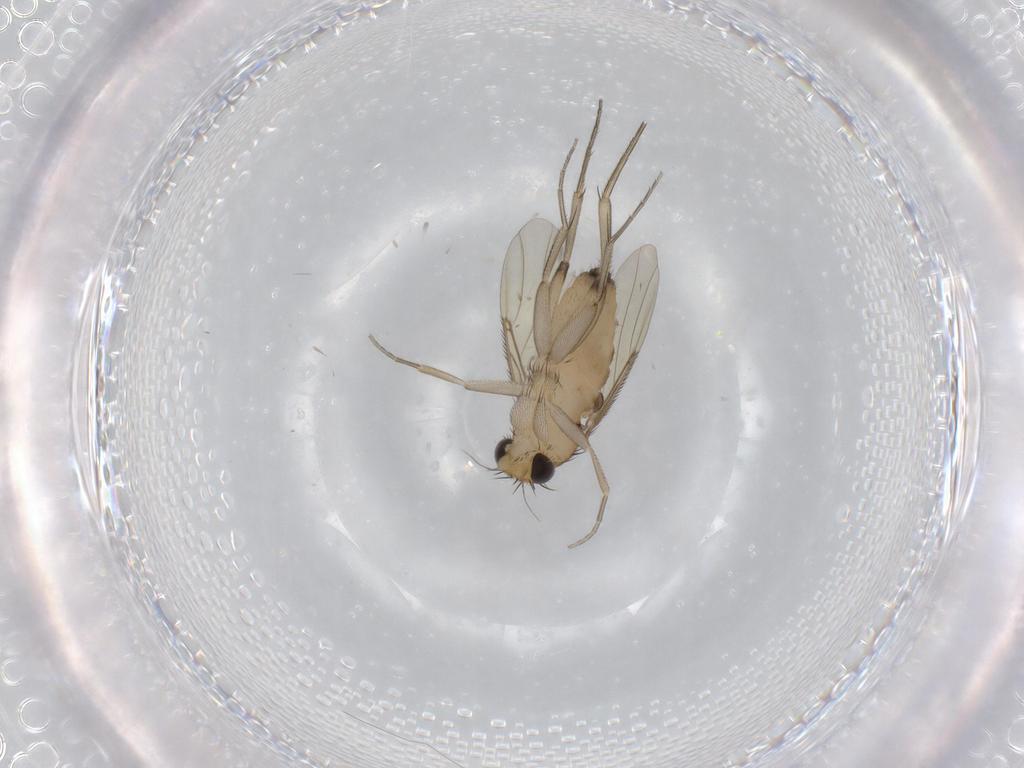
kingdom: Animalia
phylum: Arthropoda
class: Insecta
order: Diptera
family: Phoridae
